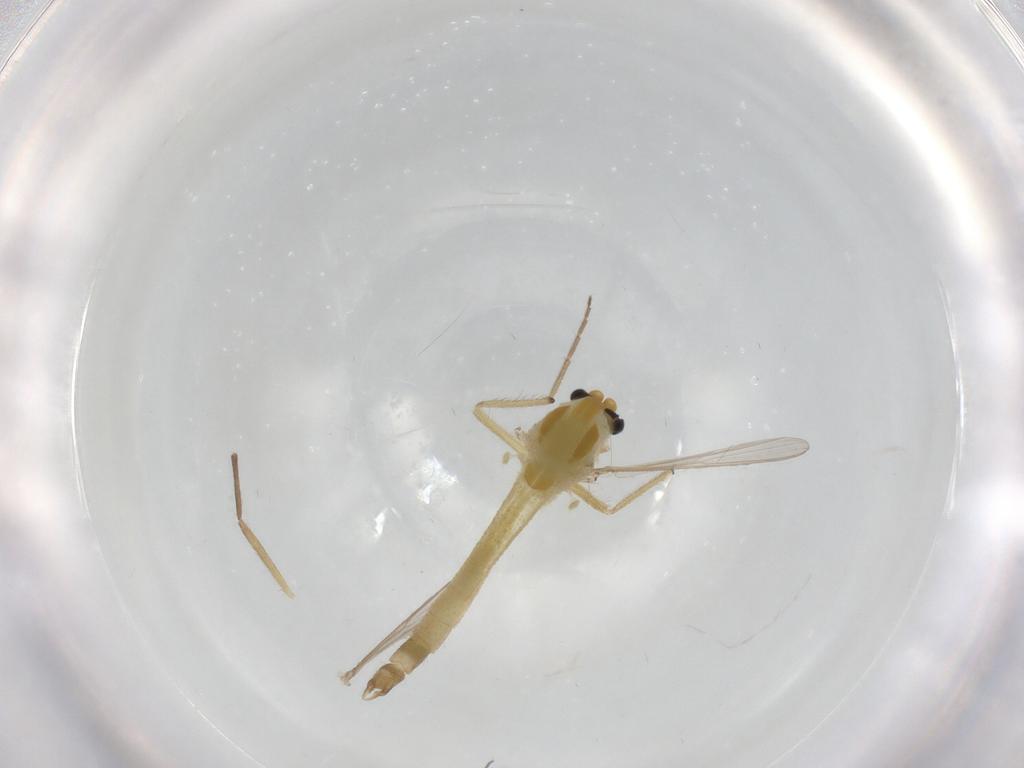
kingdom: Animalia
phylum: Arthropoda
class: Insecta
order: Diptera
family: Chironomidae
